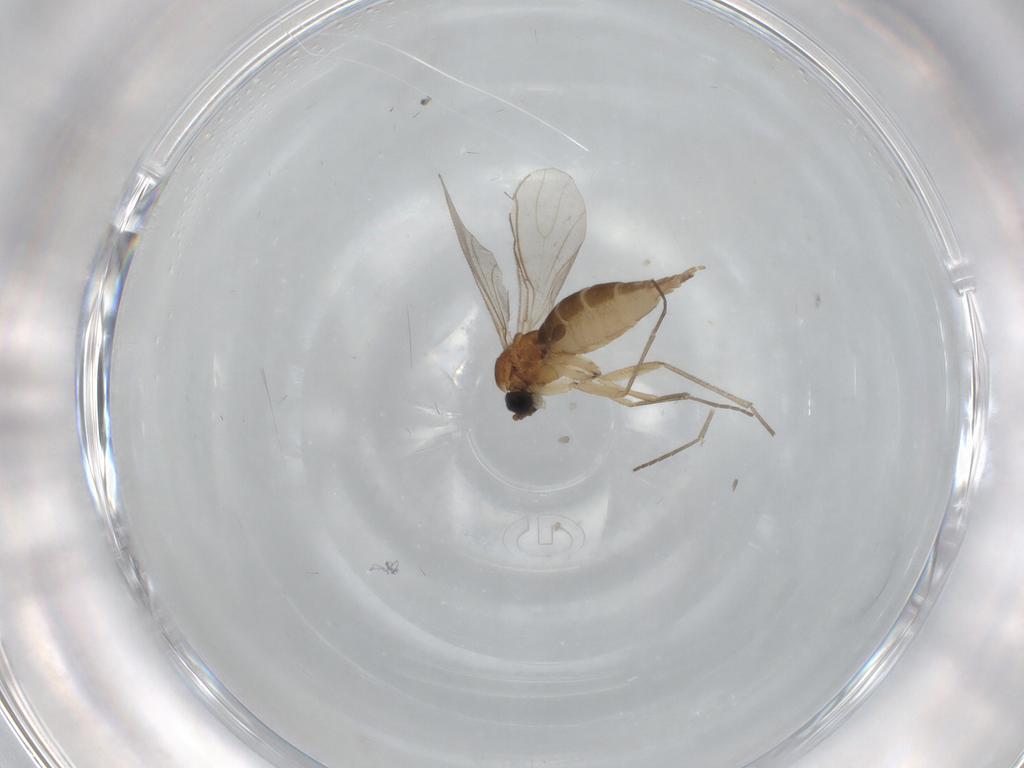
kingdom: Animalia
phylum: Arthropoda
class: Insecta
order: Diptera
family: Sciaridae
